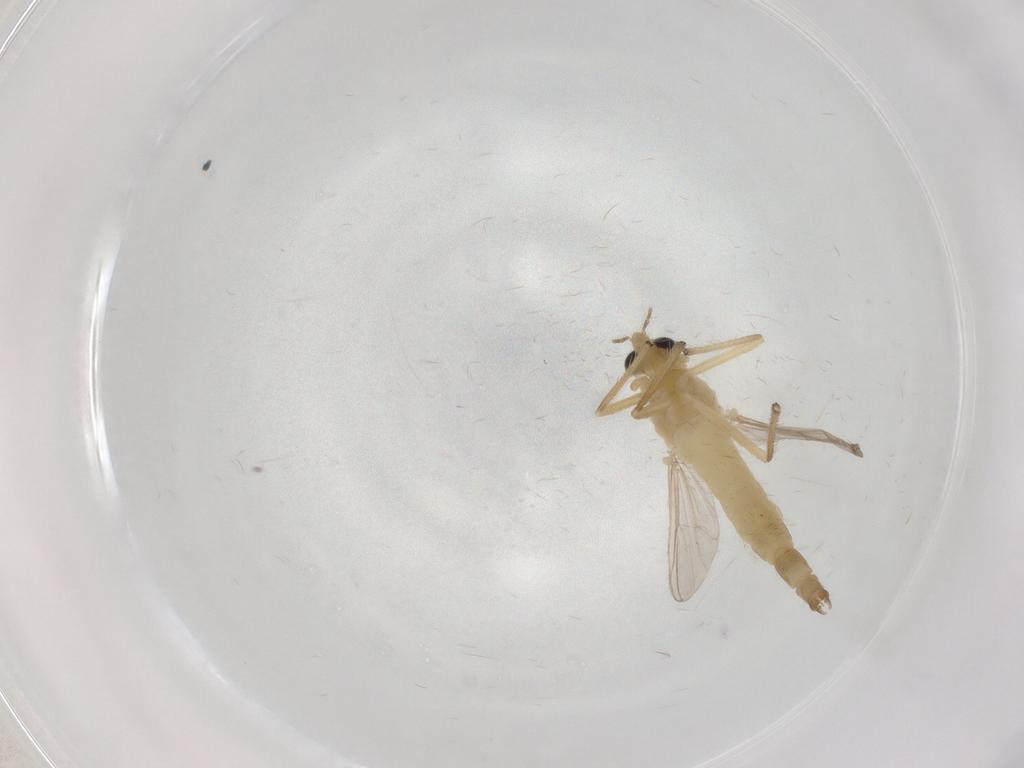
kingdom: Animalia
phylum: Arthropoda
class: Insecta
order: Diptera
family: Chironomidae
